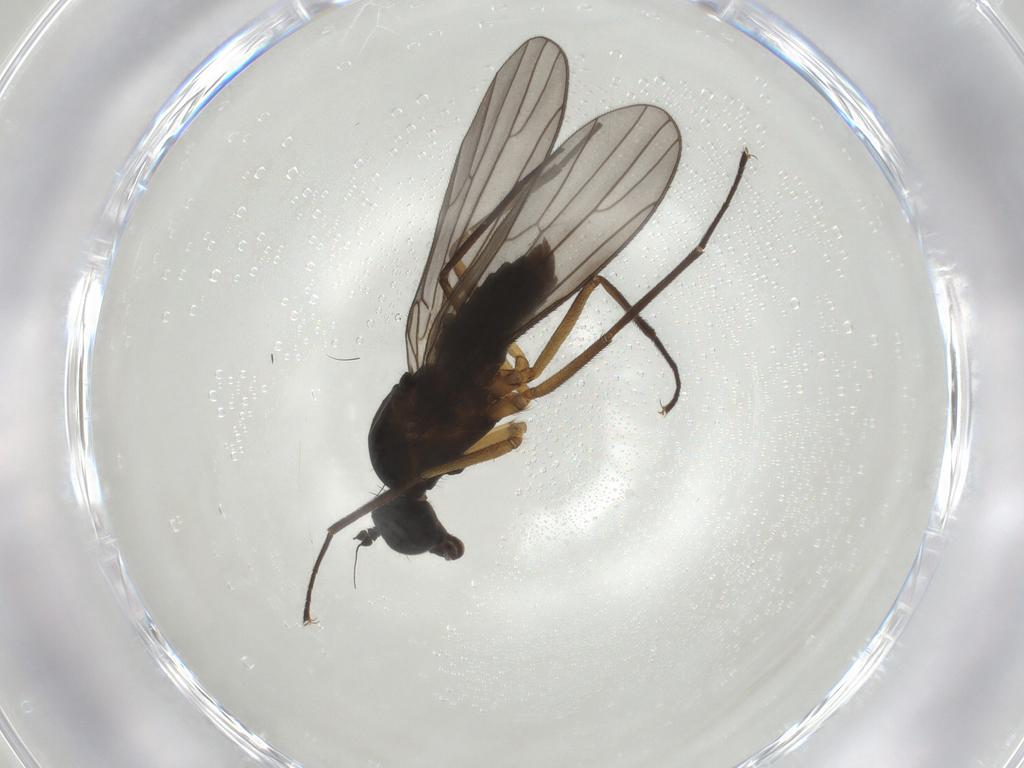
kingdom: Animalia
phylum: Arthropoda
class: Insecta
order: Diptera
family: Empididae
